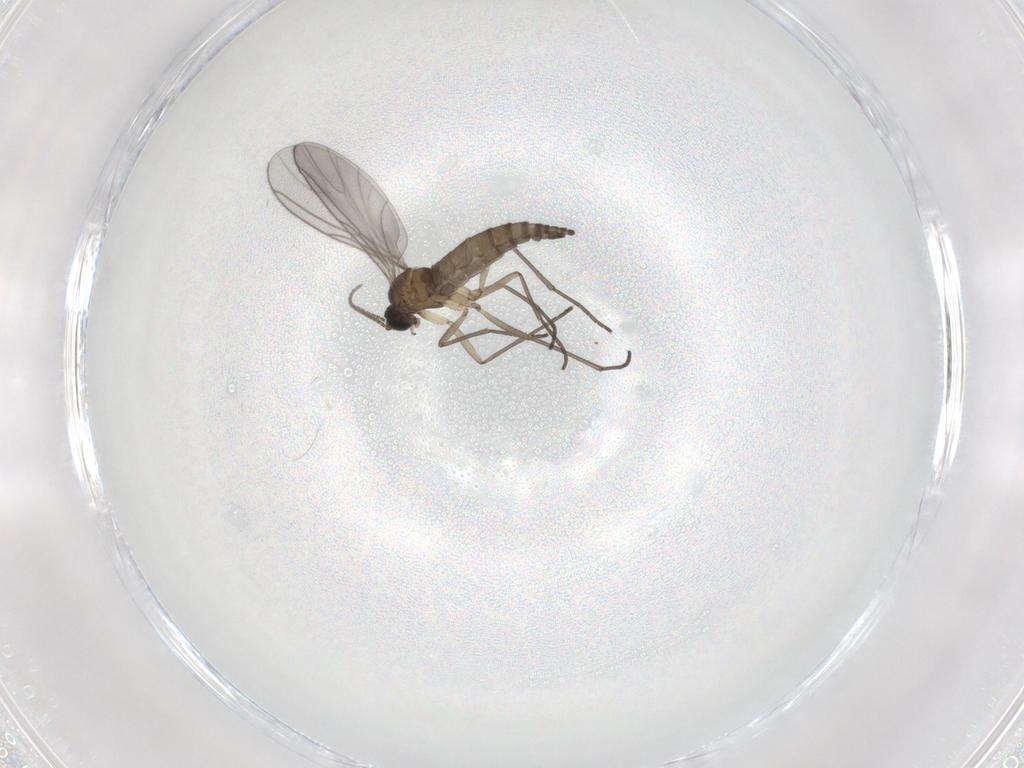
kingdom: Animalia
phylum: Arthropoda
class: Insecta
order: Diptera
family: Sciaridae
